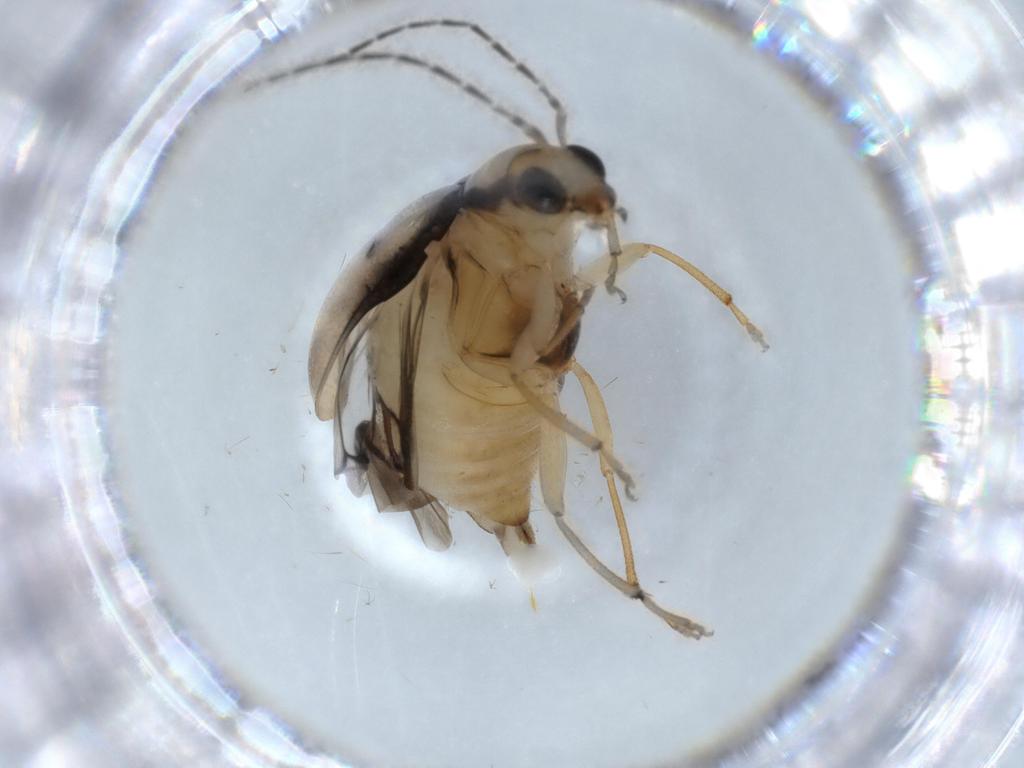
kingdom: Animalia
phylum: Arthropoda
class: Insecta
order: Coleoptera
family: Chrysomelidae
